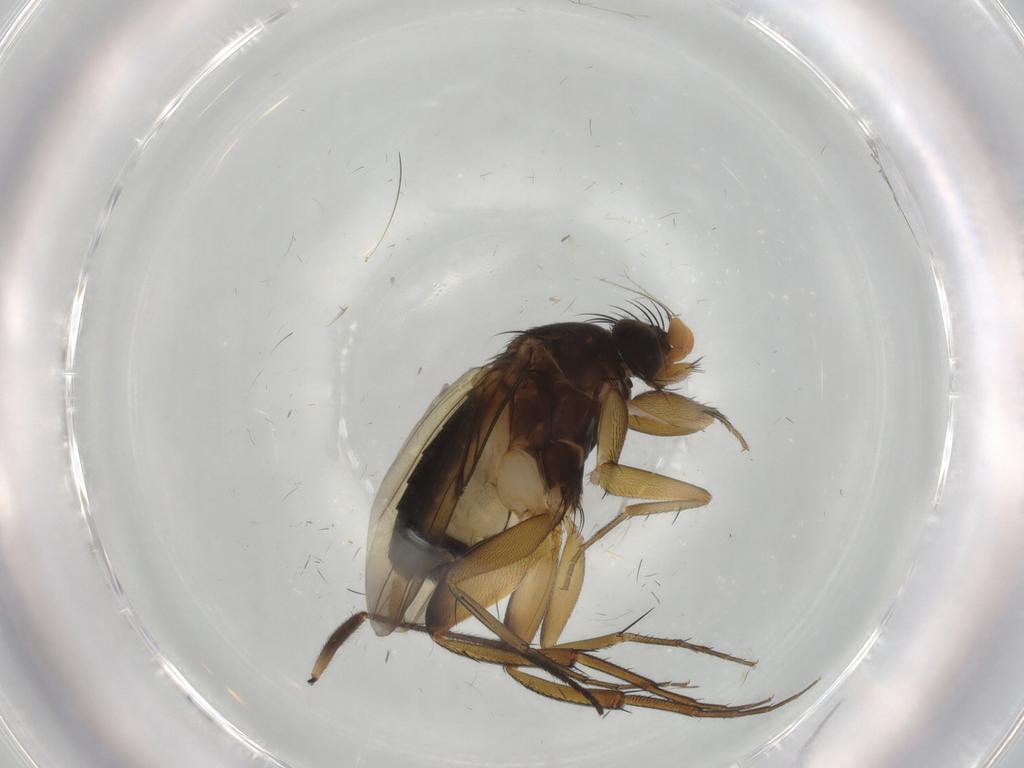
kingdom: Animalia
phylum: Arthropoda
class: Insecta
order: Diptera
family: Phoridae
